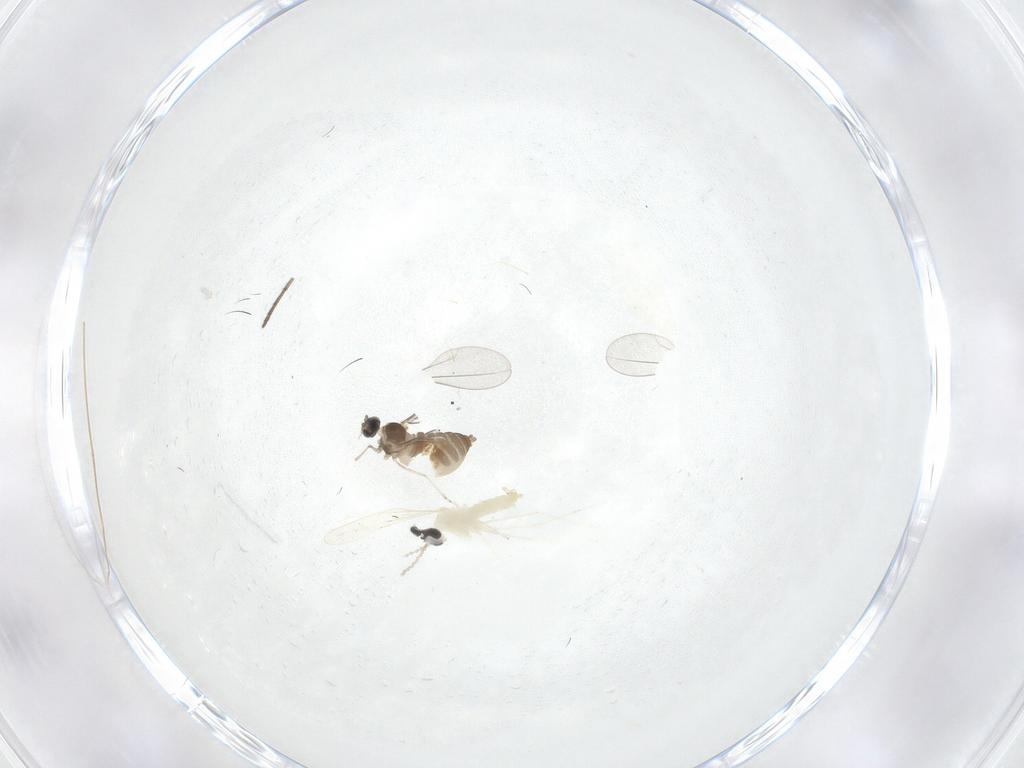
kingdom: Animalia
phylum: Arthropoda
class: Insecta
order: Diptera
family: Cecidomyiidae
